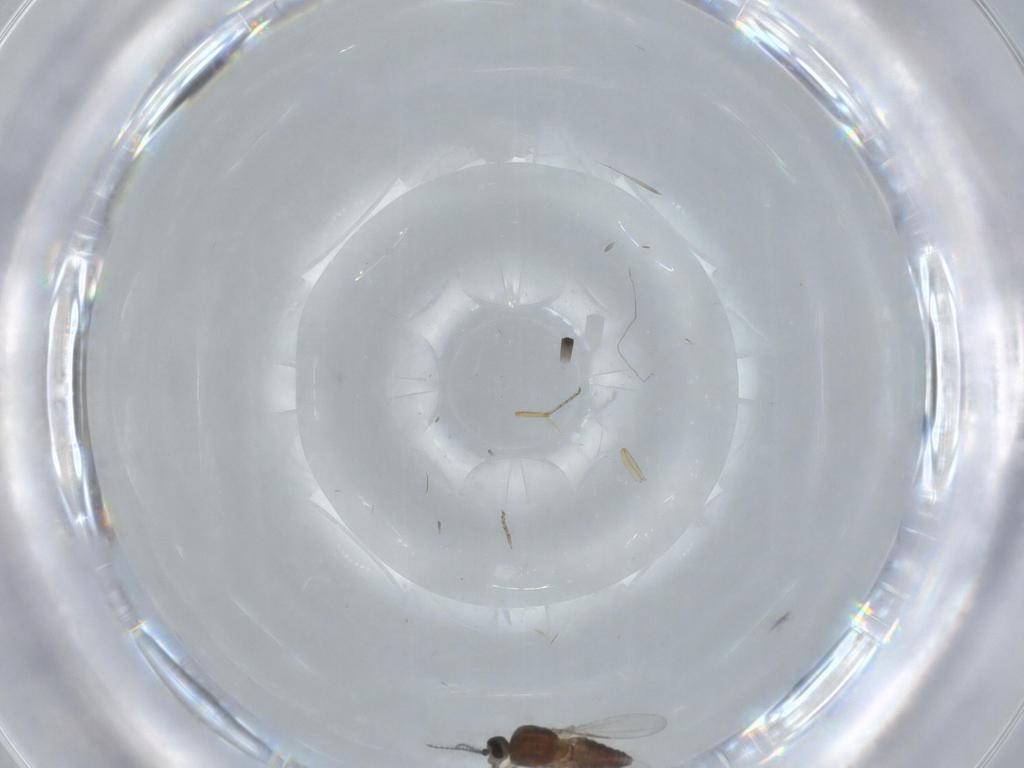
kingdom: Animalia
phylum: Arthropoda
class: Insecta
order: Diptera
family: Ceratopogonidae
